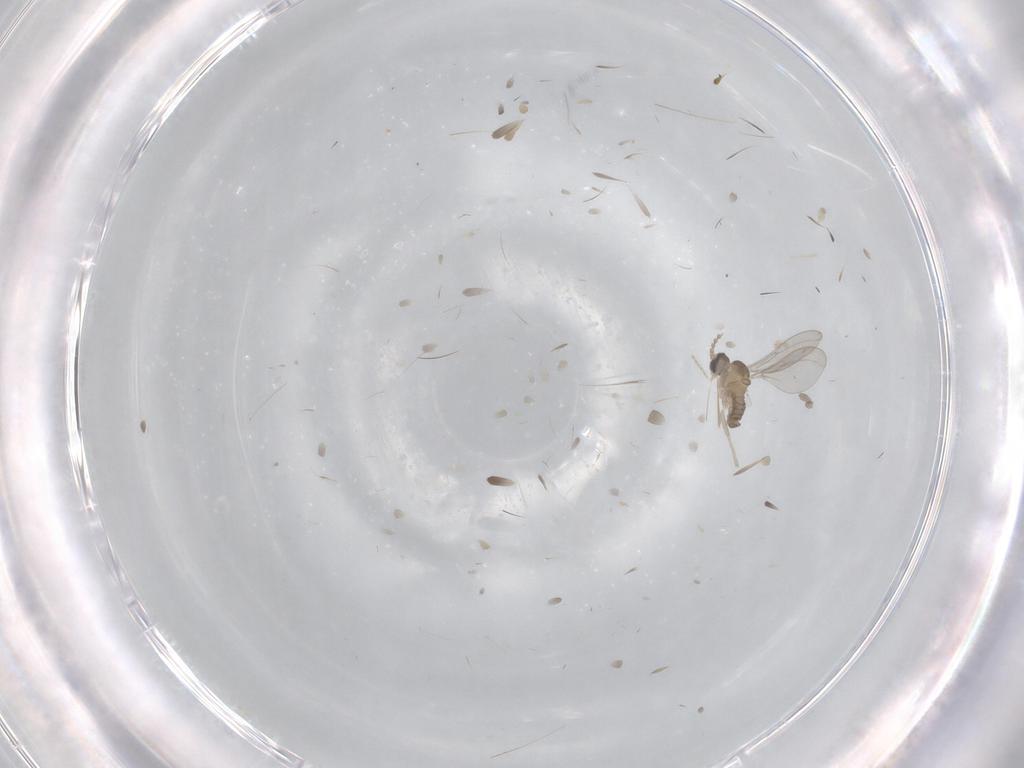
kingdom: Animalia
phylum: Arthropoda
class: Insecta
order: Diptera
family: Cecidomyiidae
